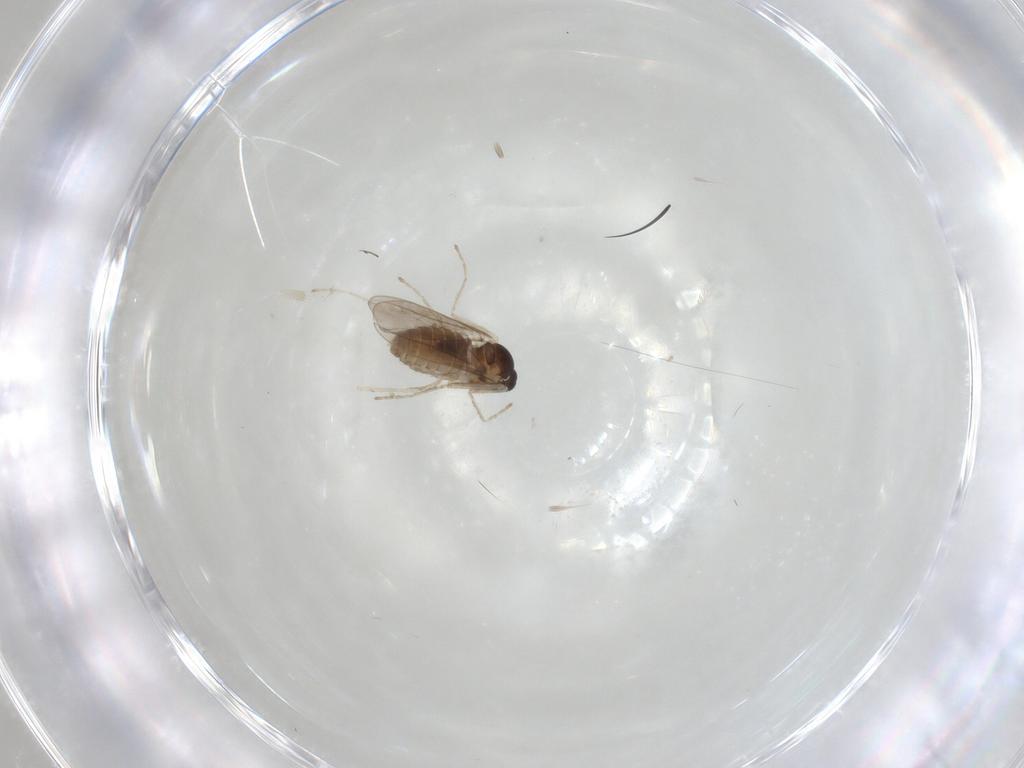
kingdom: Animalia
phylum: Arthropoda
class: Insecta
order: Diptera
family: Cecidomyiidae
